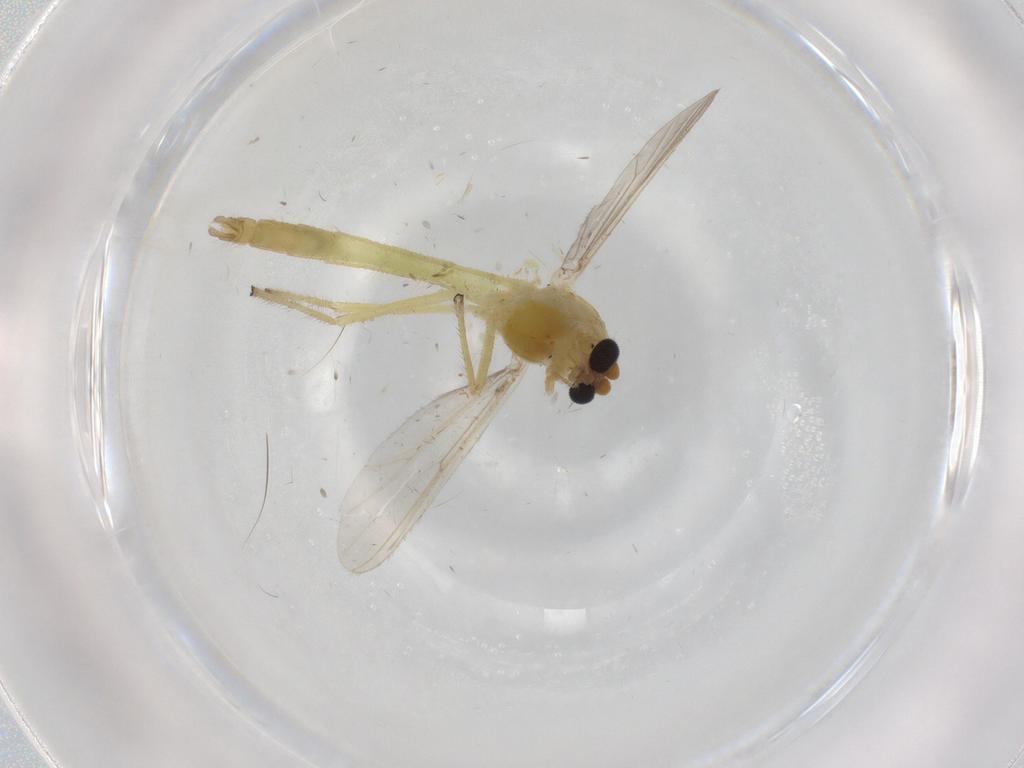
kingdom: Animalia
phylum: Arthropoda
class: Insecta
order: Diptera
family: Chironomidae
